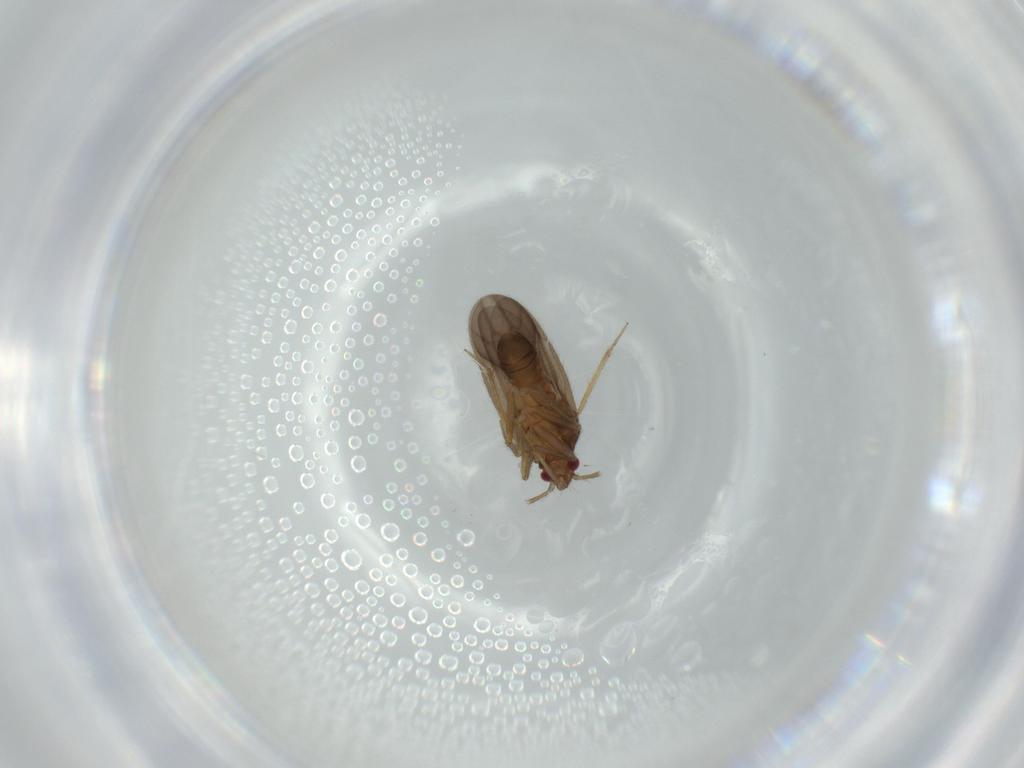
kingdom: Animalia
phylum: Arthropoda
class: Insecta
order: Hemiptera
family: Ceratocombidae
